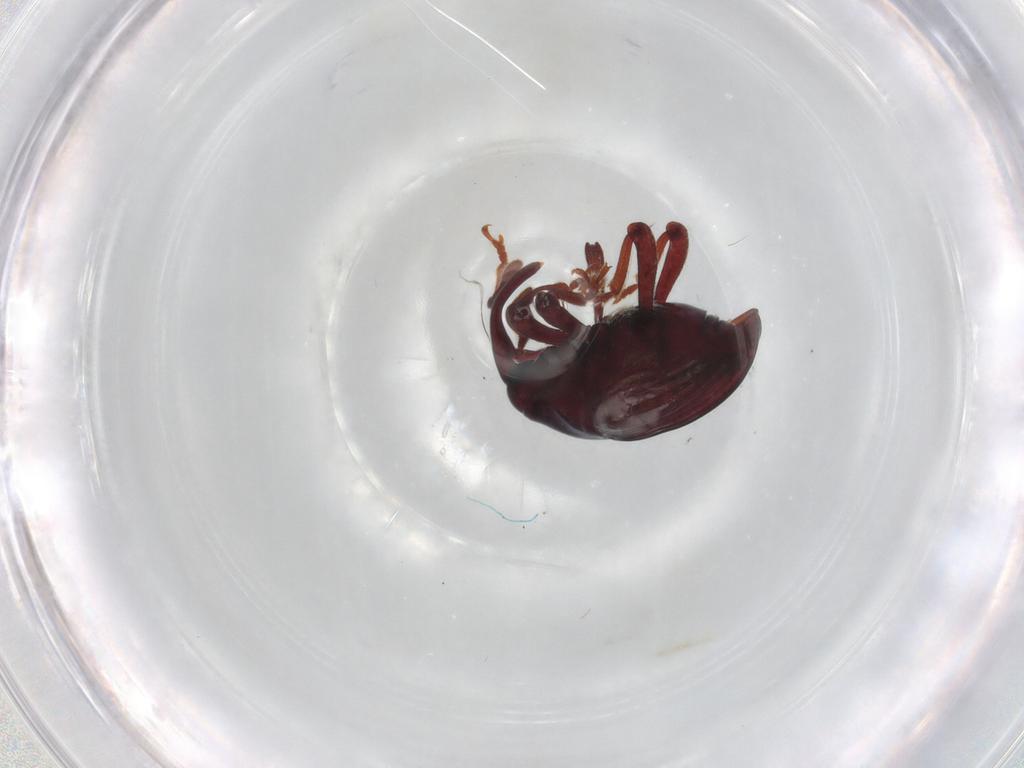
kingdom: Animalia
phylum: Arthropoda
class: Insecta
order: Coleoptera
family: Curculionidae
